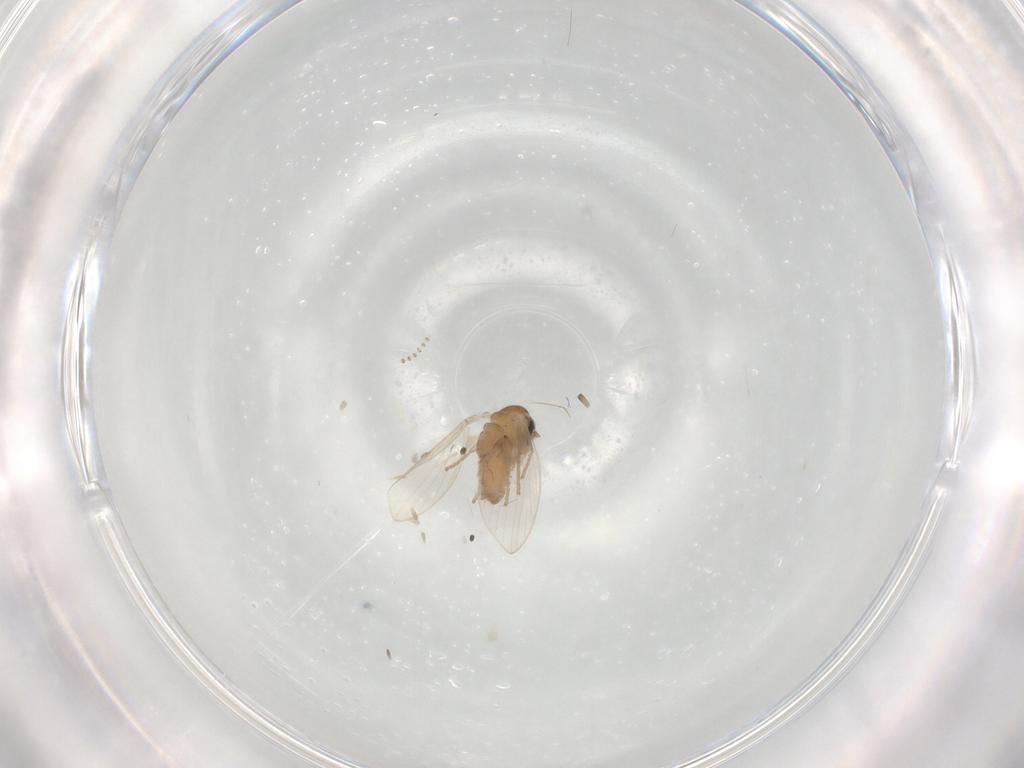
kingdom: Animalia
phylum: Arthropoda
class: Insecta
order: Diptera
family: Psychodidae
